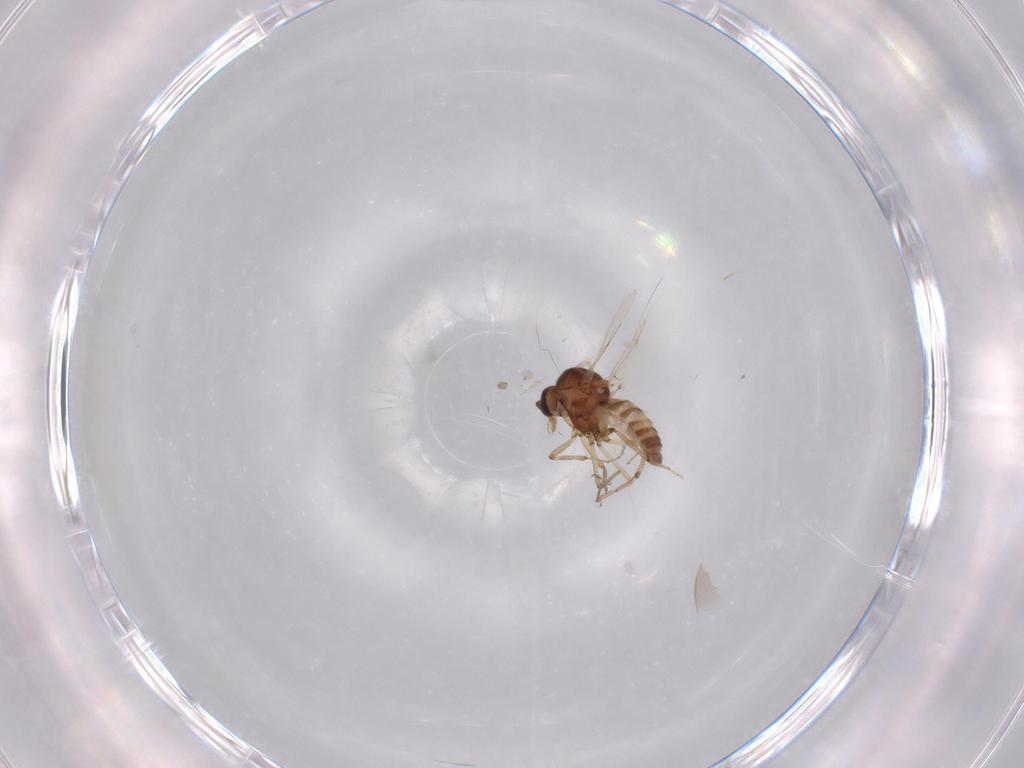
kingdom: Animalia
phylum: Arthropoda
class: Insecta
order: Diptera
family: Ceratopogonidae
